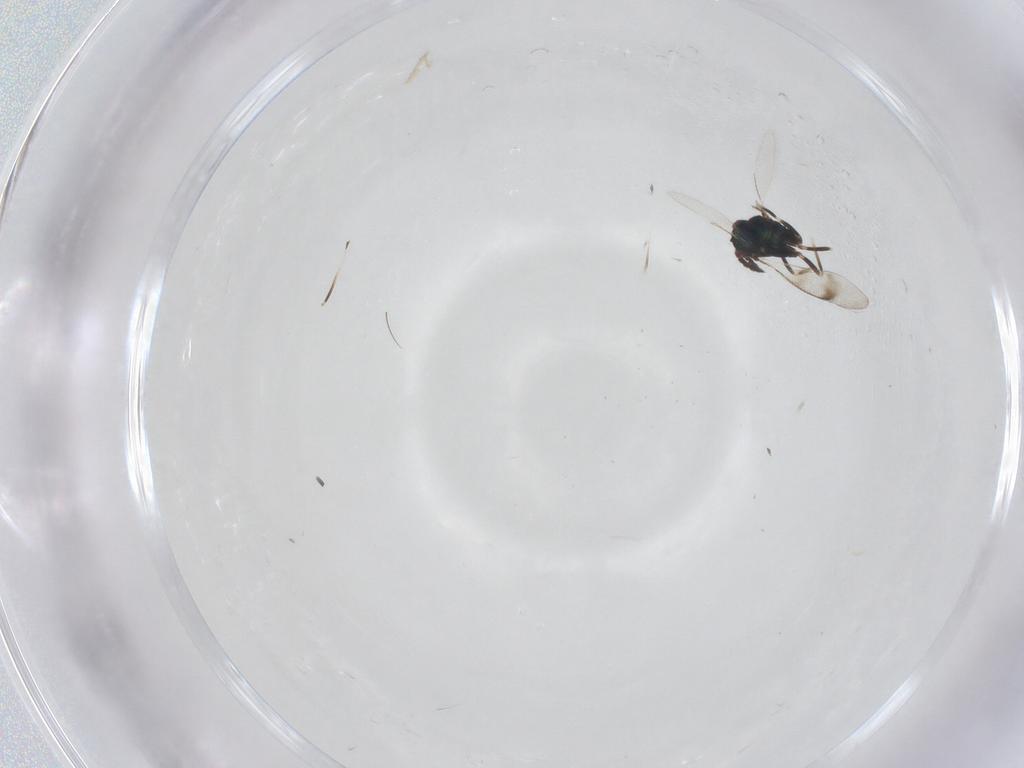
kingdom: Animalia
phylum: Arthropoda
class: Insecta
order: Hymenoptera
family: Eulophidae
